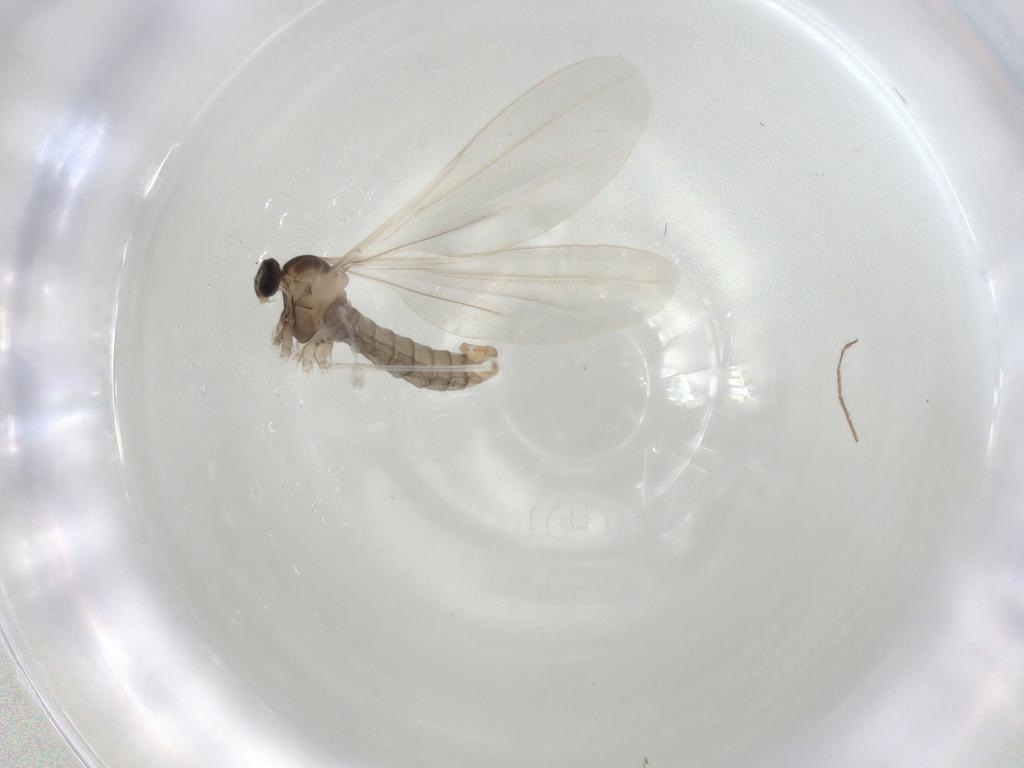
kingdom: Animalia
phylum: Arthropoda
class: Insecta
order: Diptera
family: Cecidomyiidae
